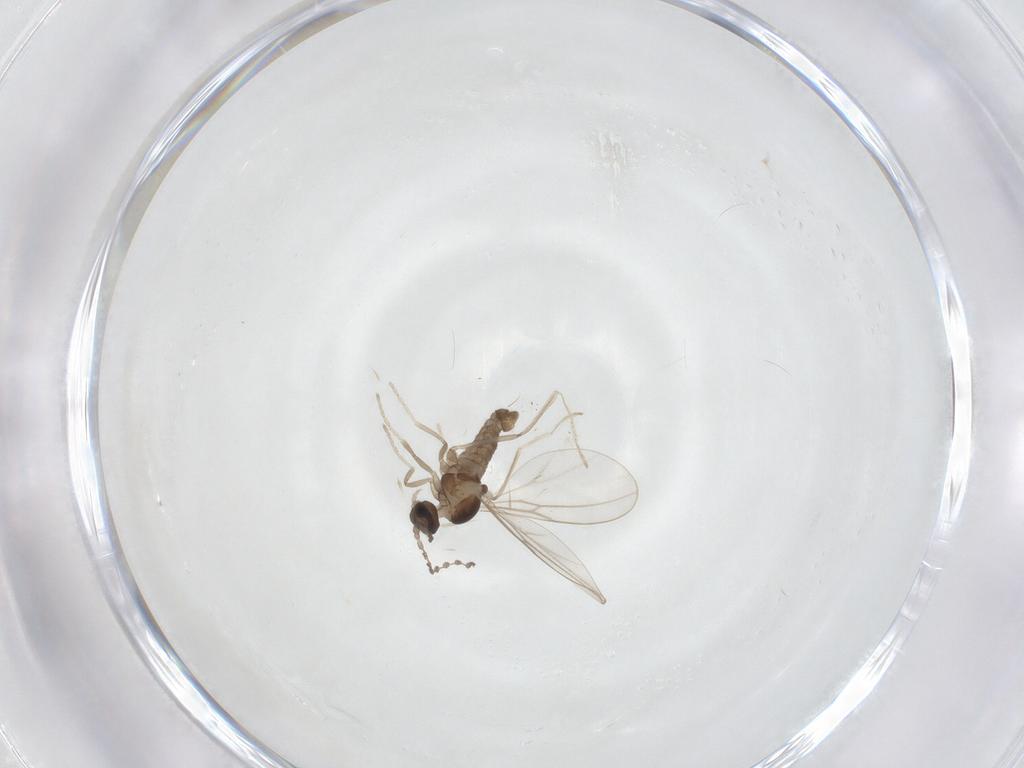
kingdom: Animalia
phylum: Arthropoda
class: Insecta
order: Diptera
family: Cecidomyiidae
